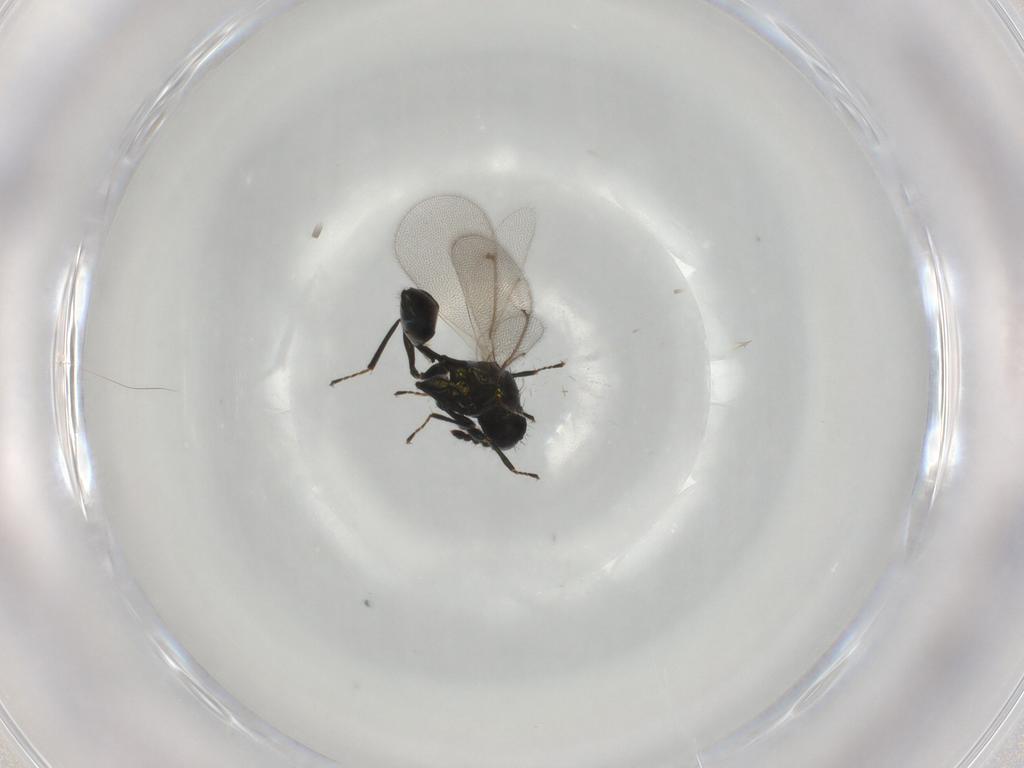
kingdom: Animalia
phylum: Arthropoda
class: Insecta
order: Hymenoptera
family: Eulophidae
